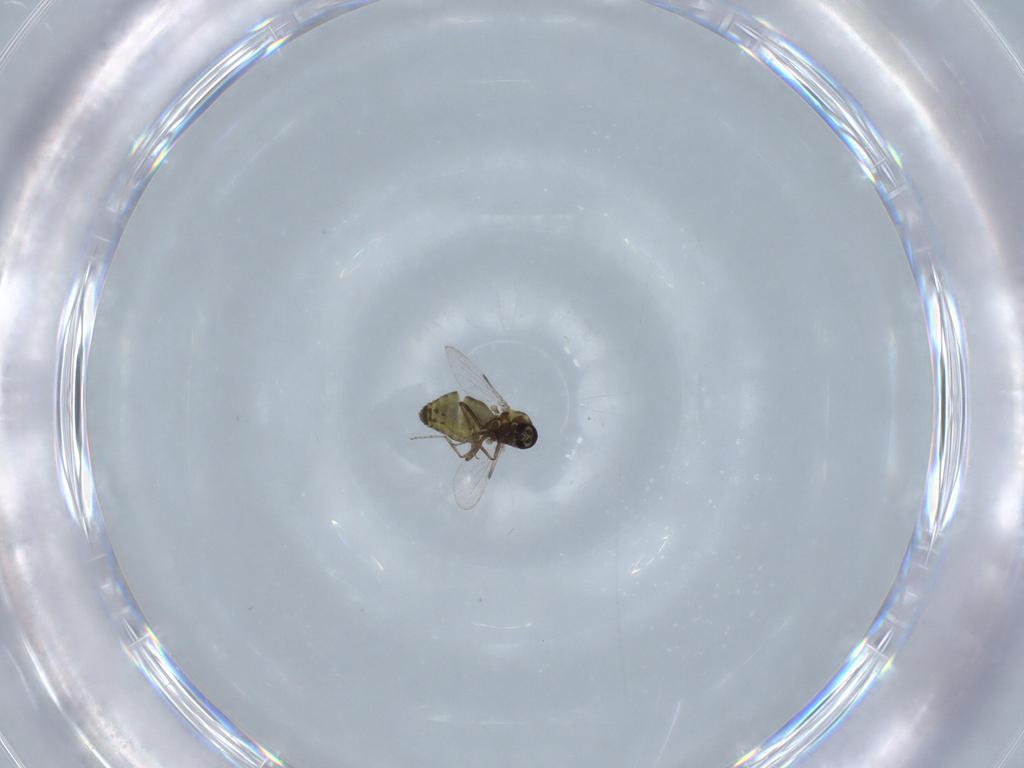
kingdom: Animalia
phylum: Arthropoda
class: Insecta
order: Diptera
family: Ceratopogonidae
